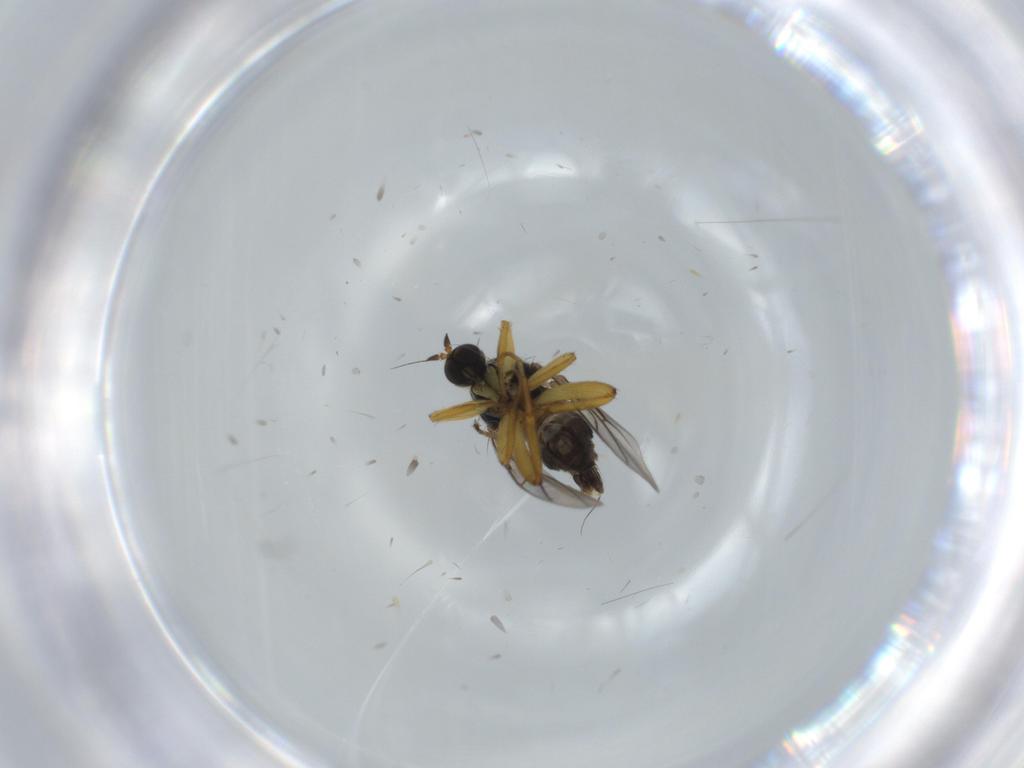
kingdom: Animalia
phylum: Arthropoda
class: Insecta
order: Diptera
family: Hybotidae
